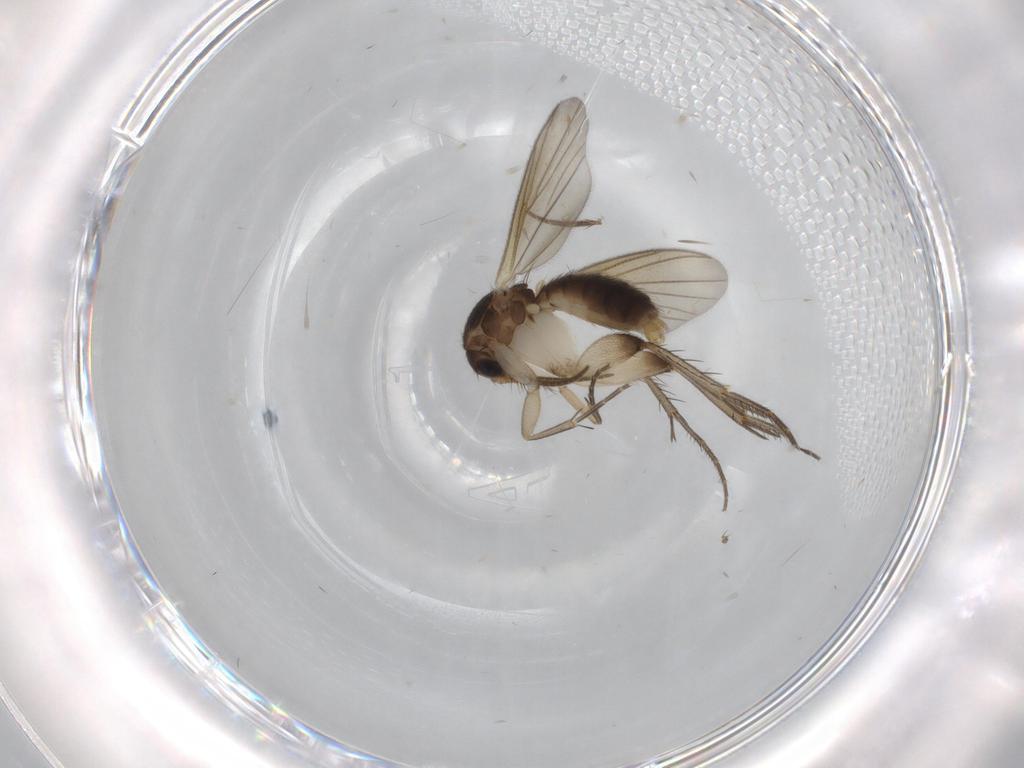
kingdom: Animalia
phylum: Arthropoda
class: Insecta
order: Diptera
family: Mycetophilidae
